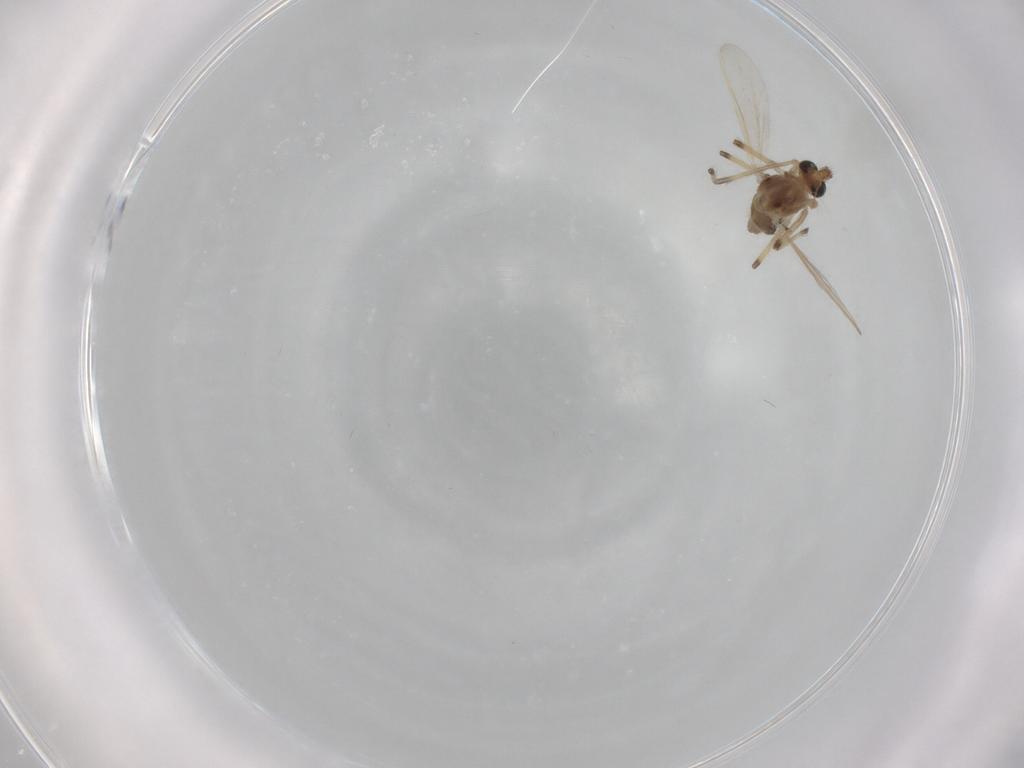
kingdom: Animalia
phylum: Arthropoda
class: Insecta
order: Diptera
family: Chironomidae
